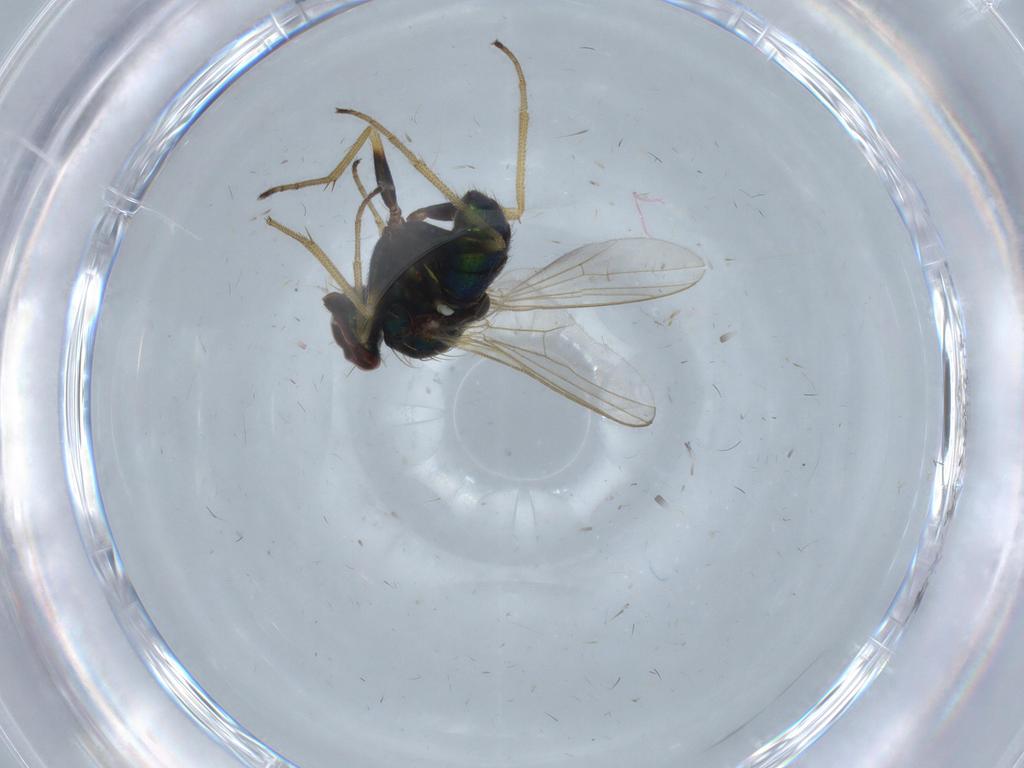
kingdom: Animalia
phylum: Arthropoda
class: Insecta
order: Diptera
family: Dolichopodidae
